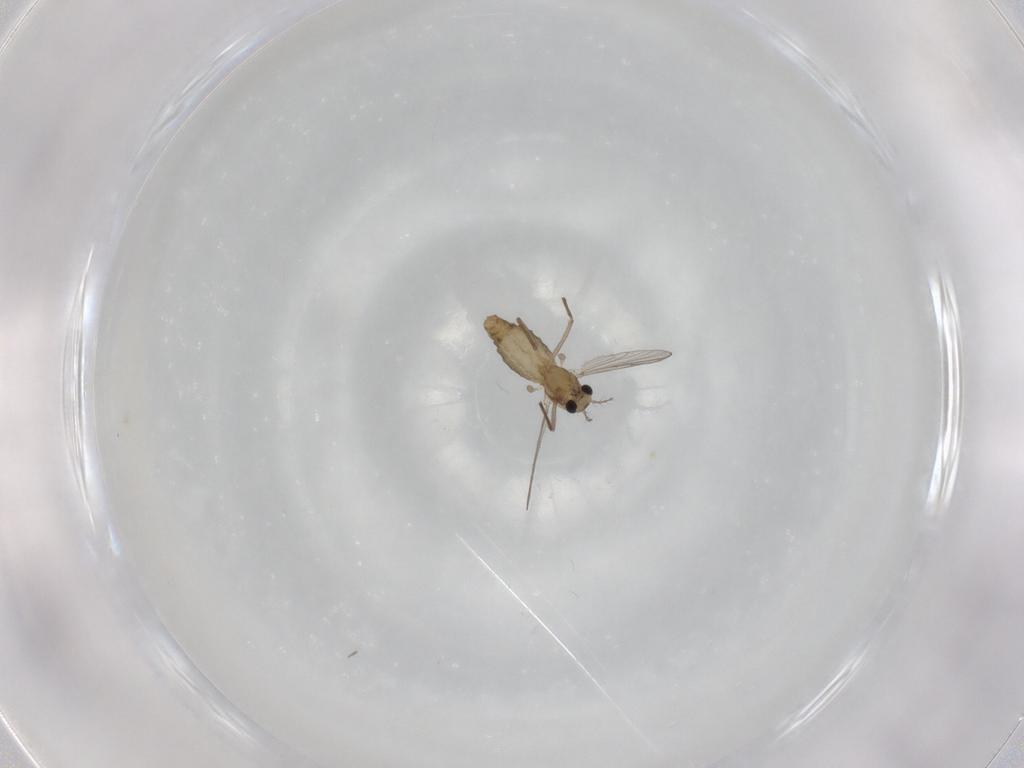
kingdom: Animalia
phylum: Arthropoda
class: Insecta
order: Diptera
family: Chironomidae
